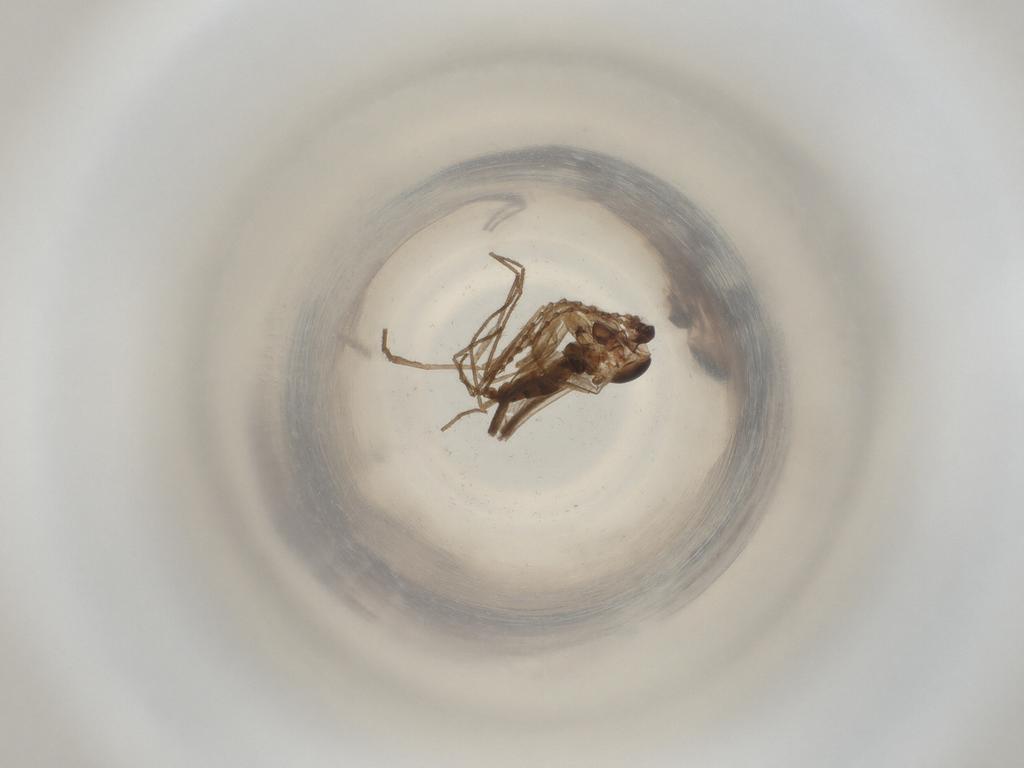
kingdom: Animalia
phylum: Arthropoda
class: Insecta
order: Diptera
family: Cecidomyiidae
